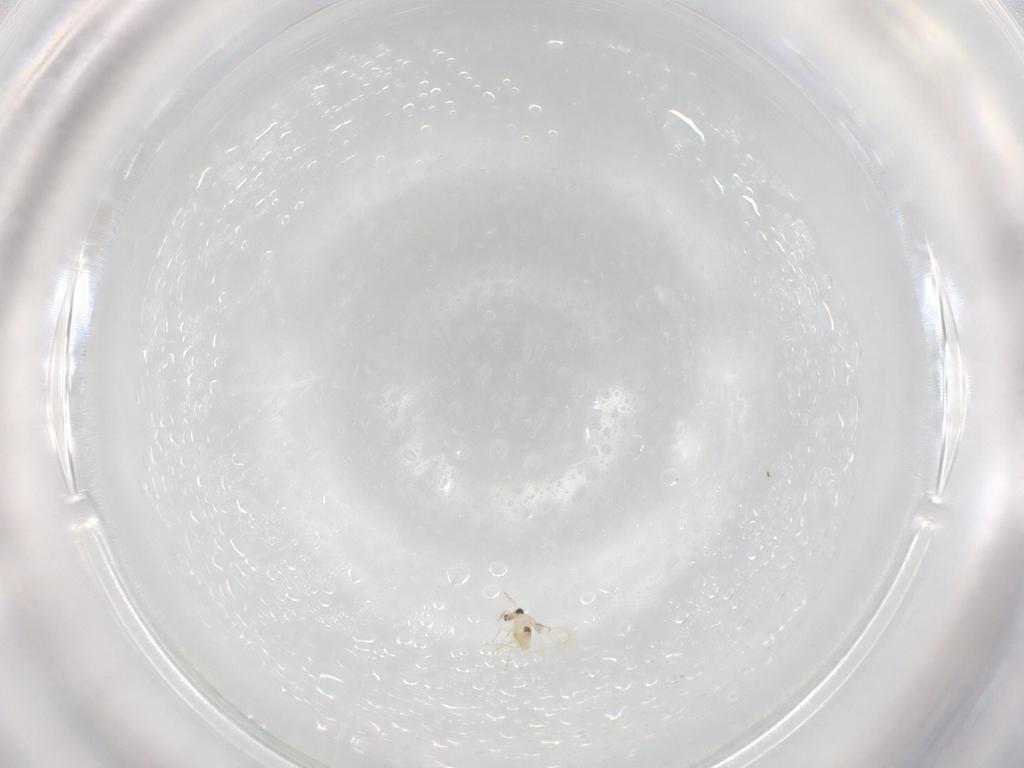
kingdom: Animalia
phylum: Arthropoda
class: Insecta
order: Hymenoptera
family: Trichogrammatidae
